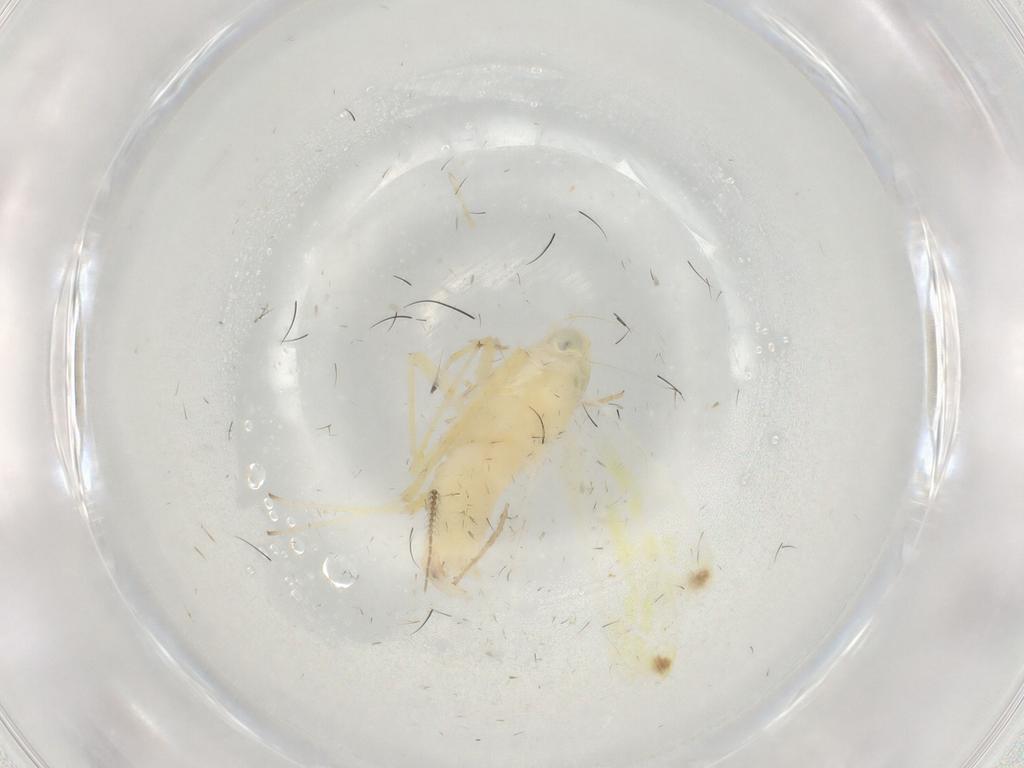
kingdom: Animalia
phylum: Arthropoda
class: Insecta
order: Hemiptera
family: Cicadellidae
